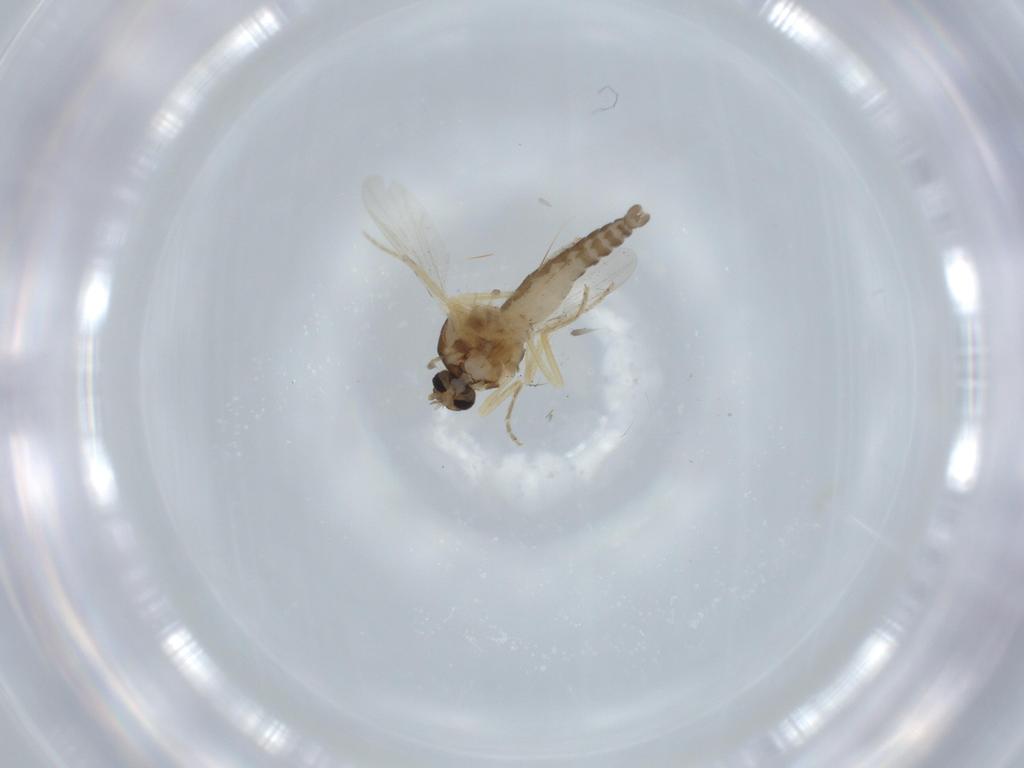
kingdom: Animalia
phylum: Arthropoda
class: Insecta
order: Diptera
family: Ceratopogonidae
